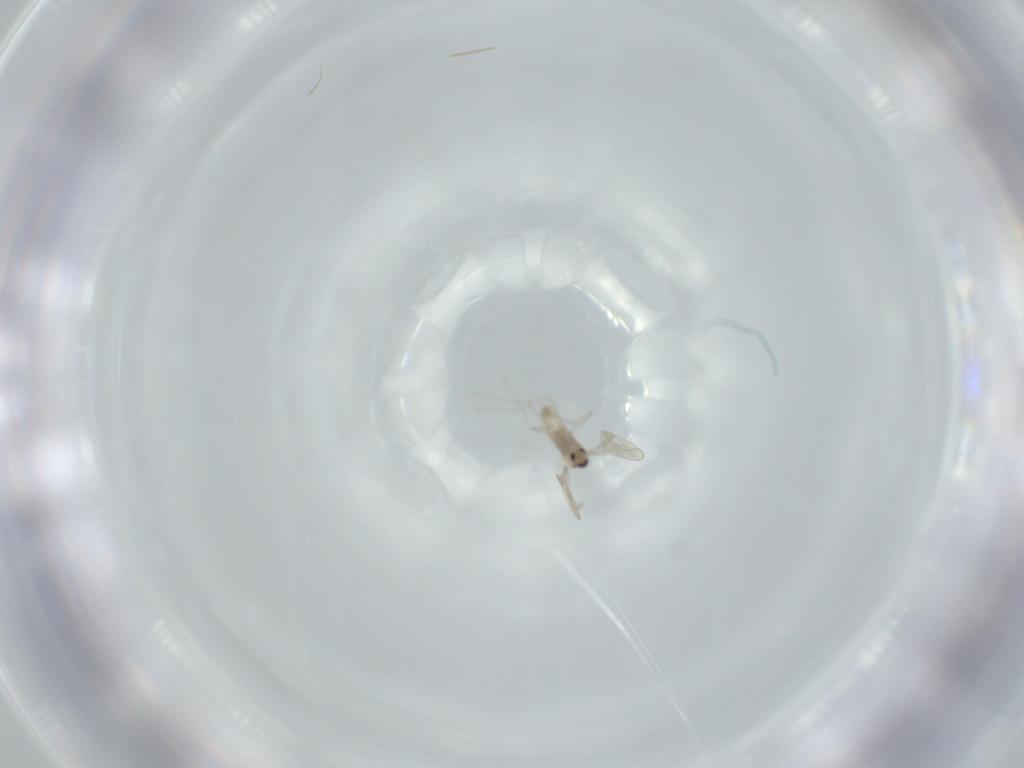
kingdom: Animalia
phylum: Arthropoda
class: Insecta
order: Diptera
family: Cecidomyiidae
